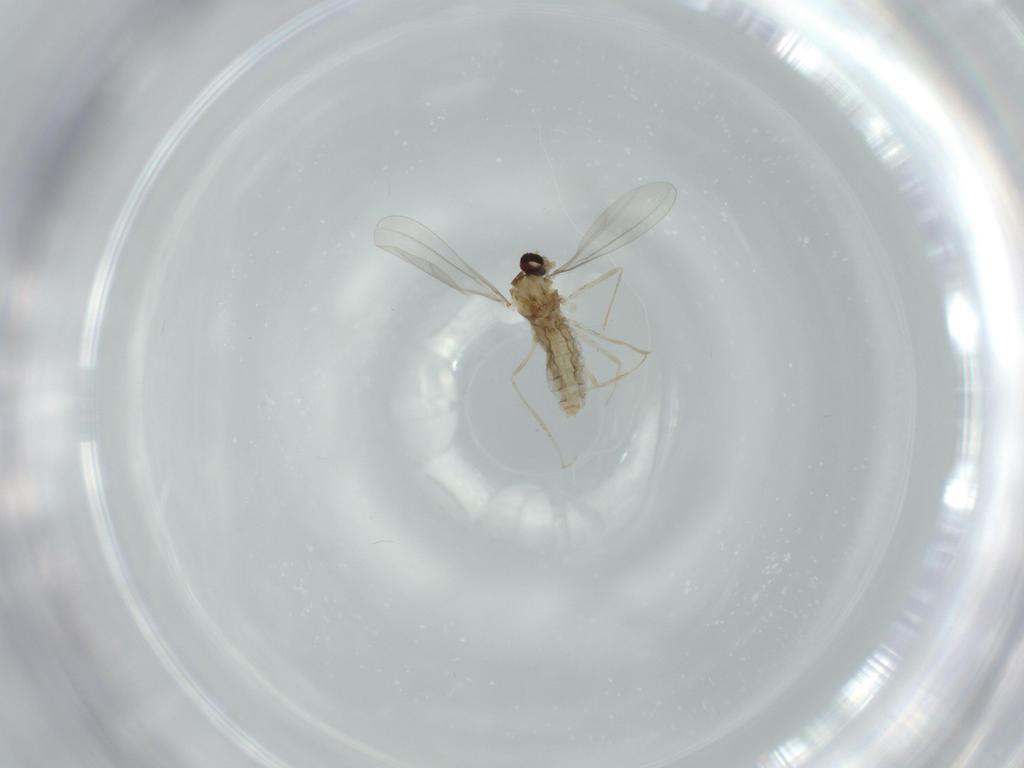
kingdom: Animalia
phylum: Arthropoda
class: Insecta
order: Diptera
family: Cecidomyiidae
